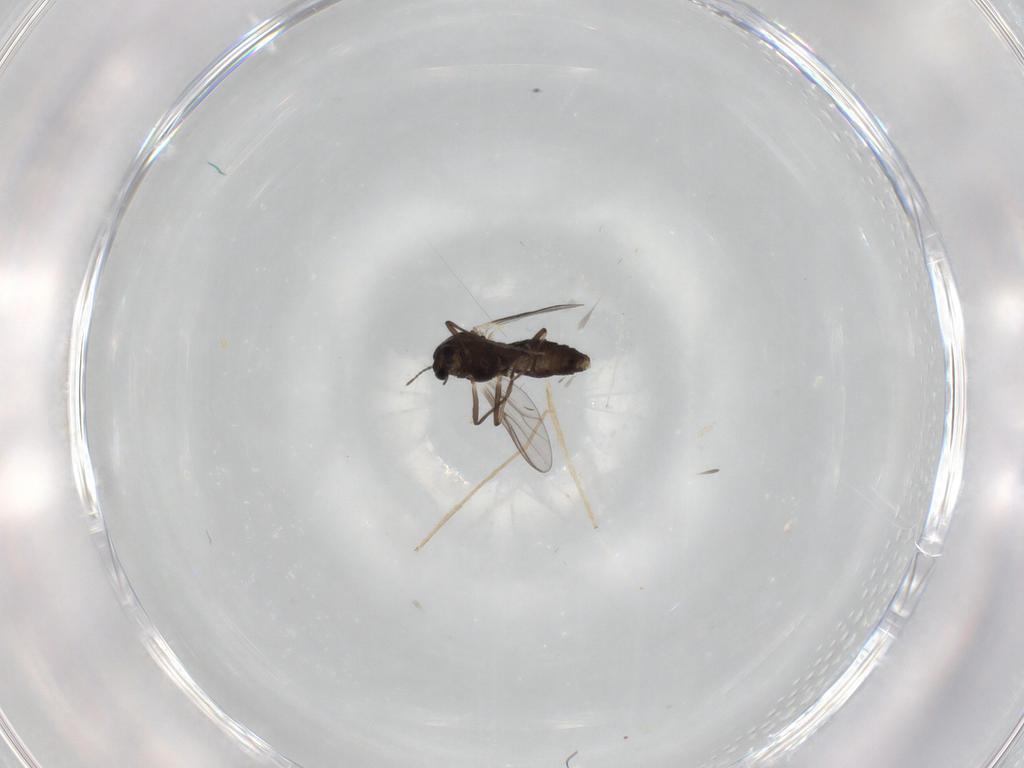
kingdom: Animalia
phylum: Arthropoda
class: Insecta
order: Diptera
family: Chironomidae
